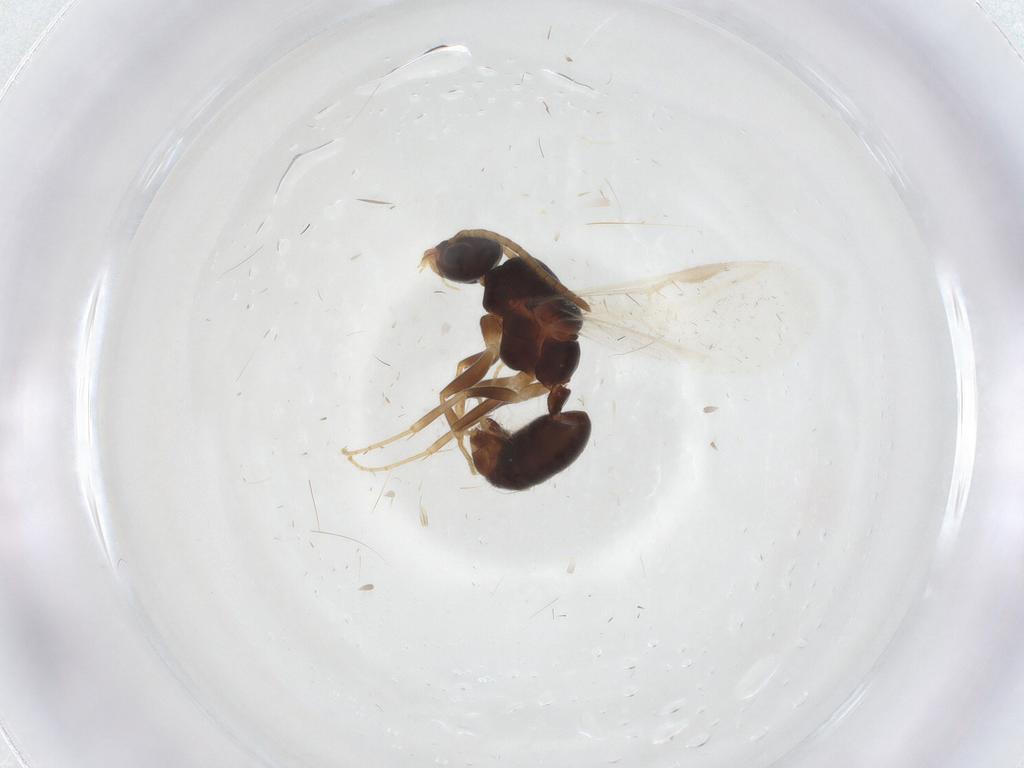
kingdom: Animalia
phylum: Arthropoda
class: Insecta
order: Hymenoptera
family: Formicidae
